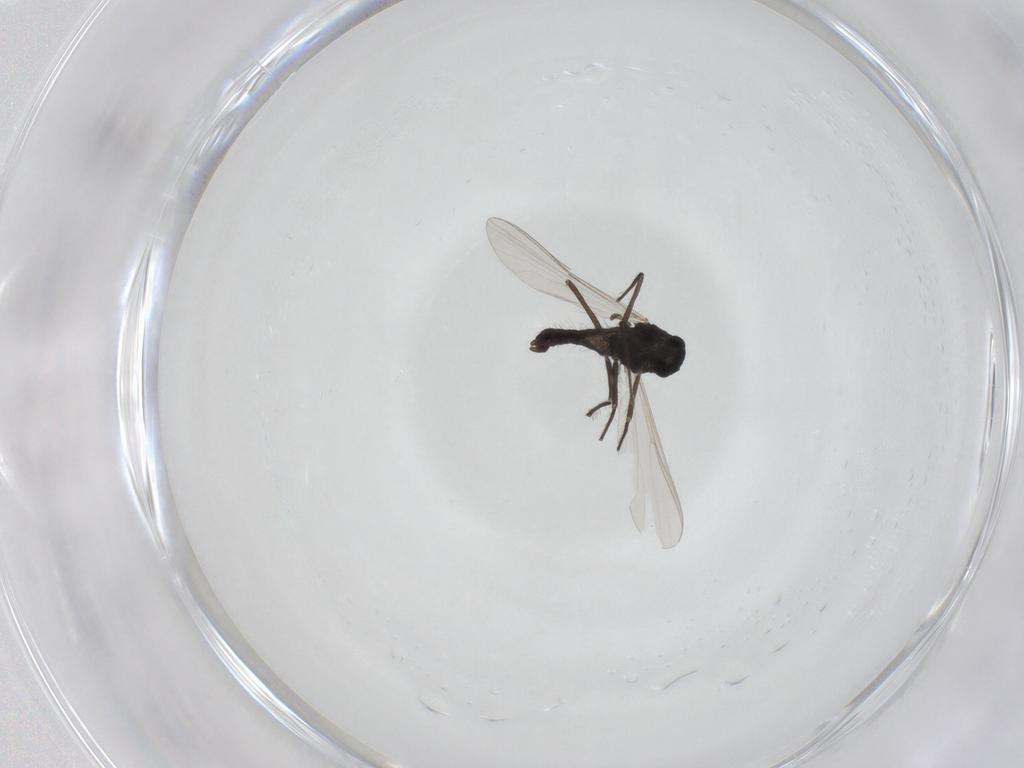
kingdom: Animalia
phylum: Arthropoda
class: Insecta
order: Diptera
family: Chironomidae
